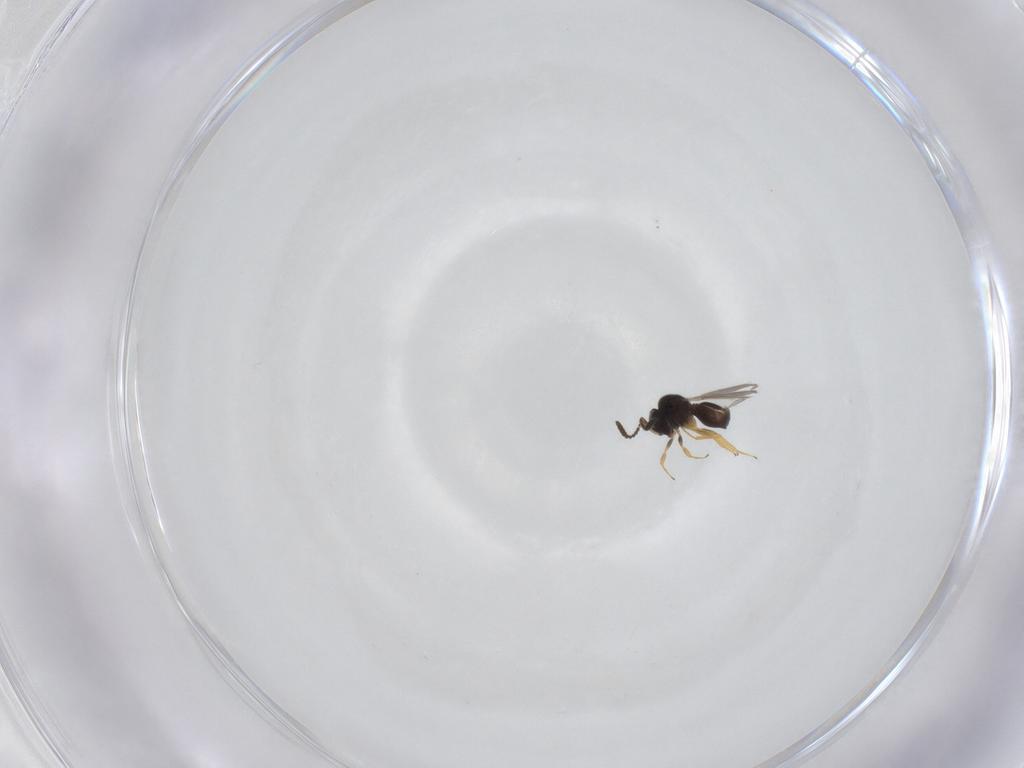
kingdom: Animalia
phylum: Arthropoda
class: Insecta
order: Hymenoptera
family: Scelionidae
